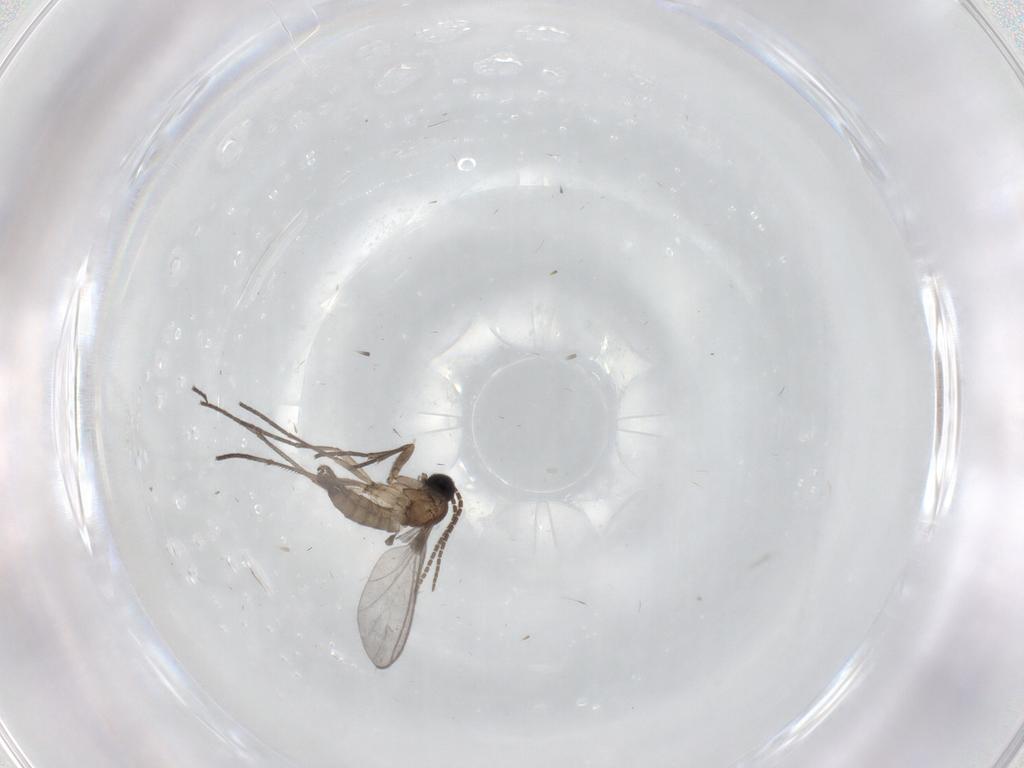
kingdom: Animalia
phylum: Arthropoda
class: Insecta
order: Diptera
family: Sciaridae
